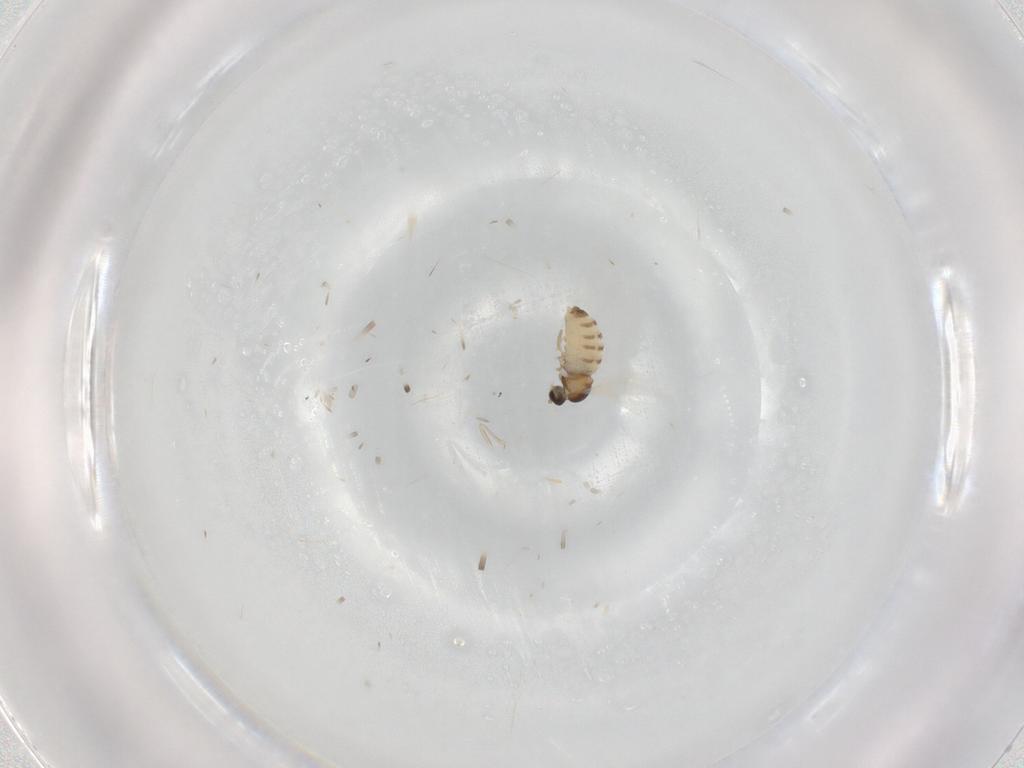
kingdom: Animalia
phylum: Arthropoda
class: Insecta
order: Diptera
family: Cecidomyiidae
